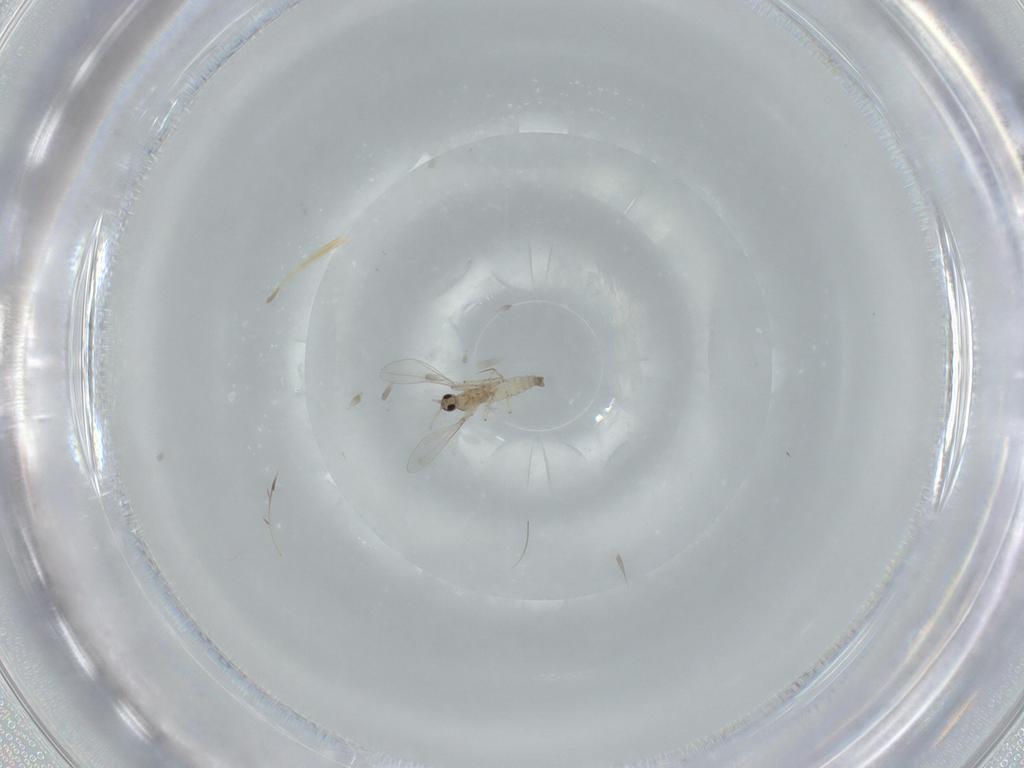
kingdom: Animalia
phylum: Arthropoda
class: Insecta
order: Diptera
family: Cecidomyiidae
